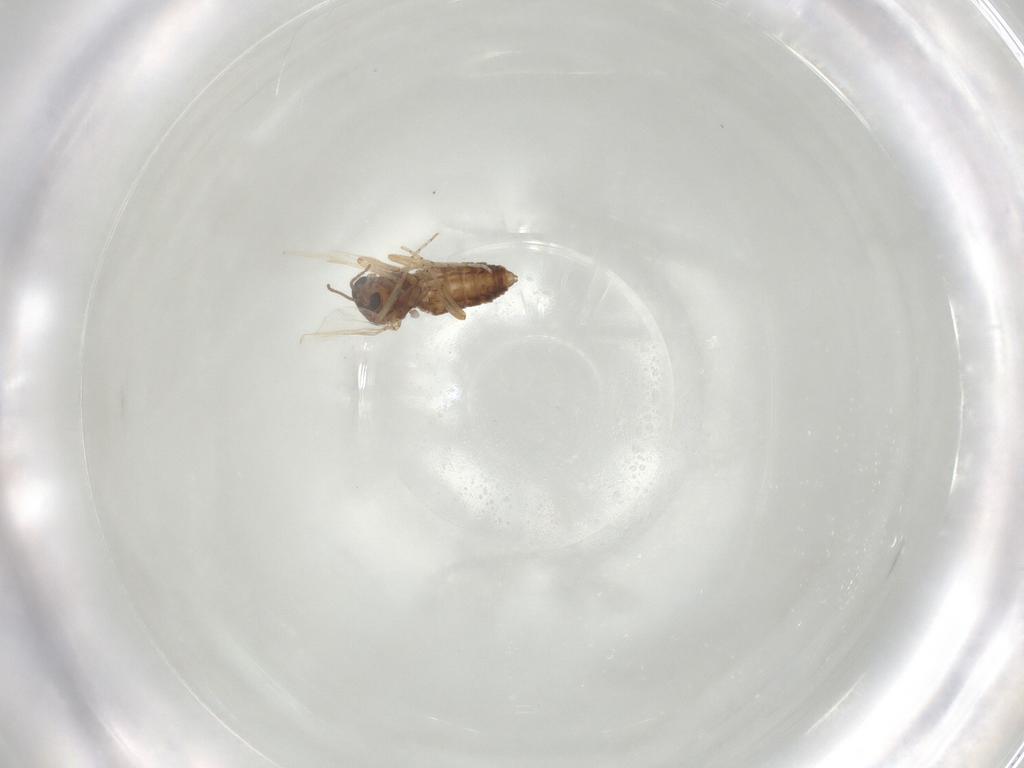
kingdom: Animalia
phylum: Arthropoda
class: Insecta
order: Diptera
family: Ceratopogonidae
